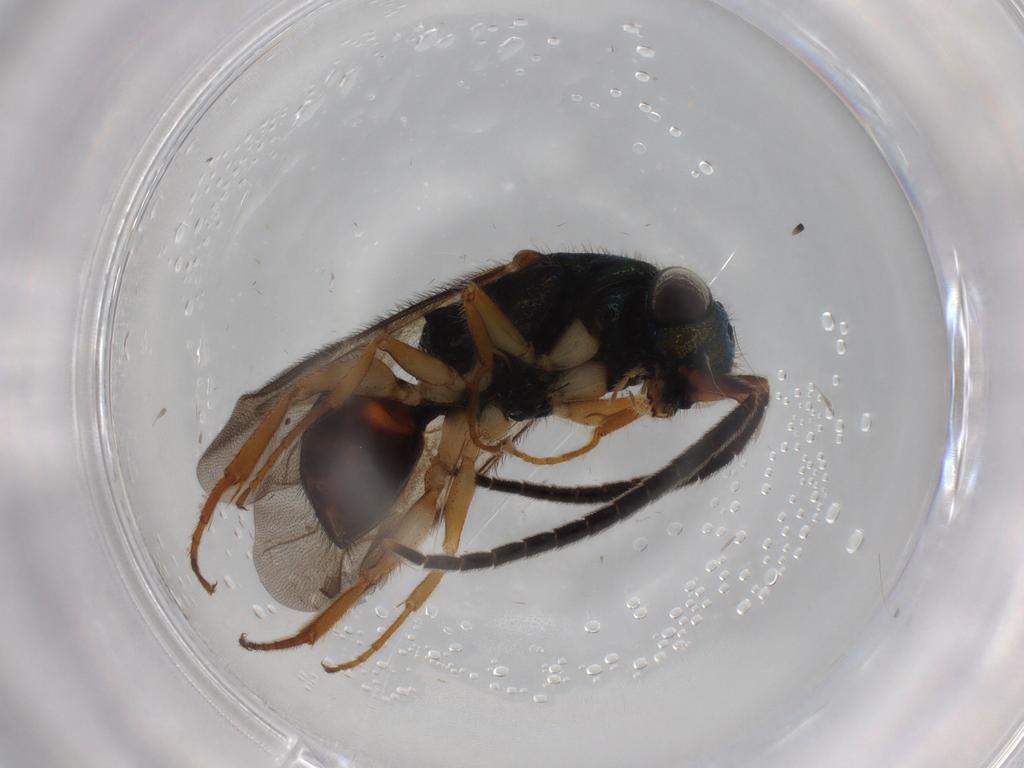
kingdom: Animalia
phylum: Arthropoda
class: Insecta
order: Hymenoptera
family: Chrysididae
